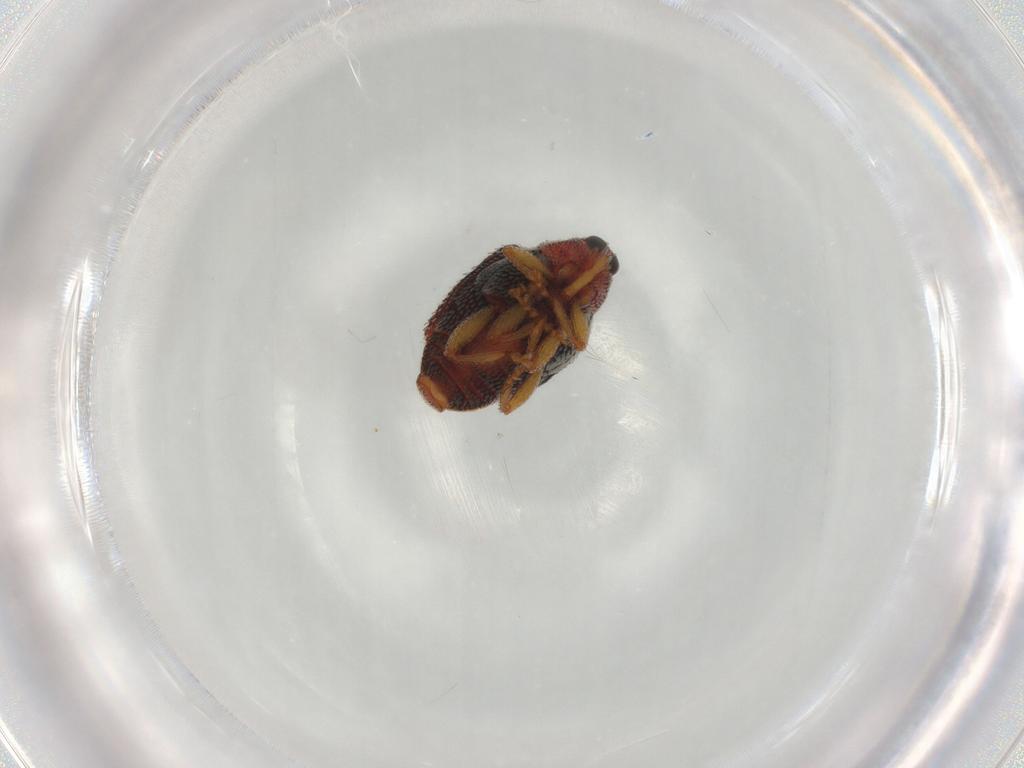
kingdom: Animalia
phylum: Arthropoda
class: Insecta
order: Coleoptera
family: Curculionidae
